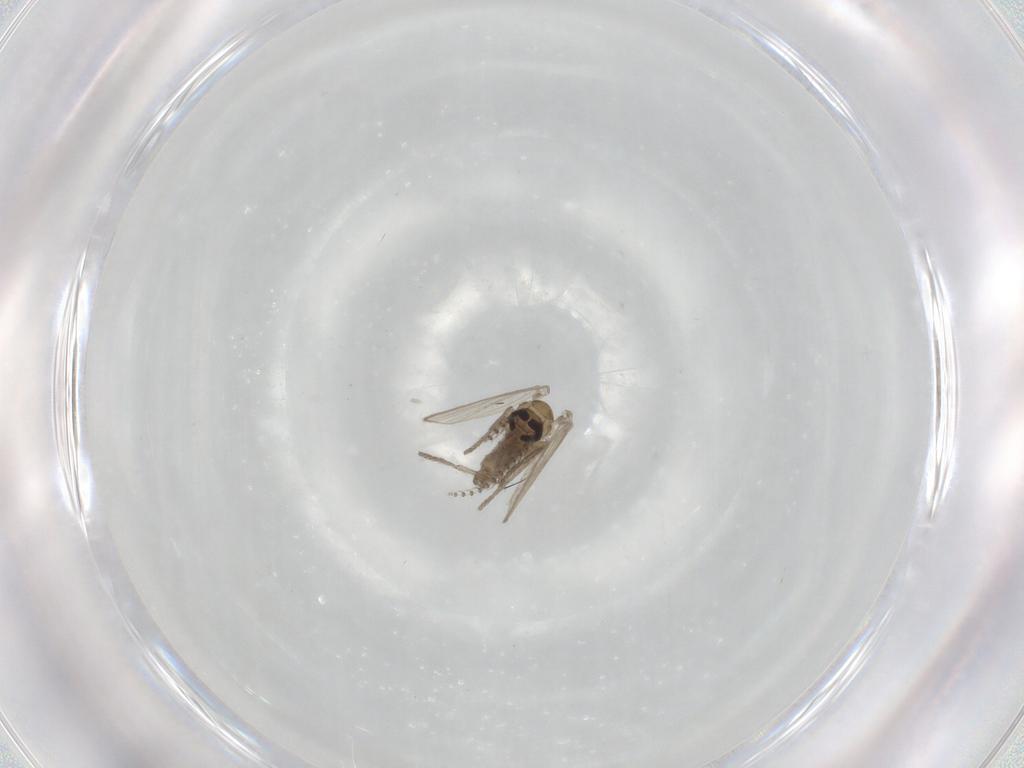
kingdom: Animalia
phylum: Arthropoda
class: Insecta
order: Diptera
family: Psychodidae
